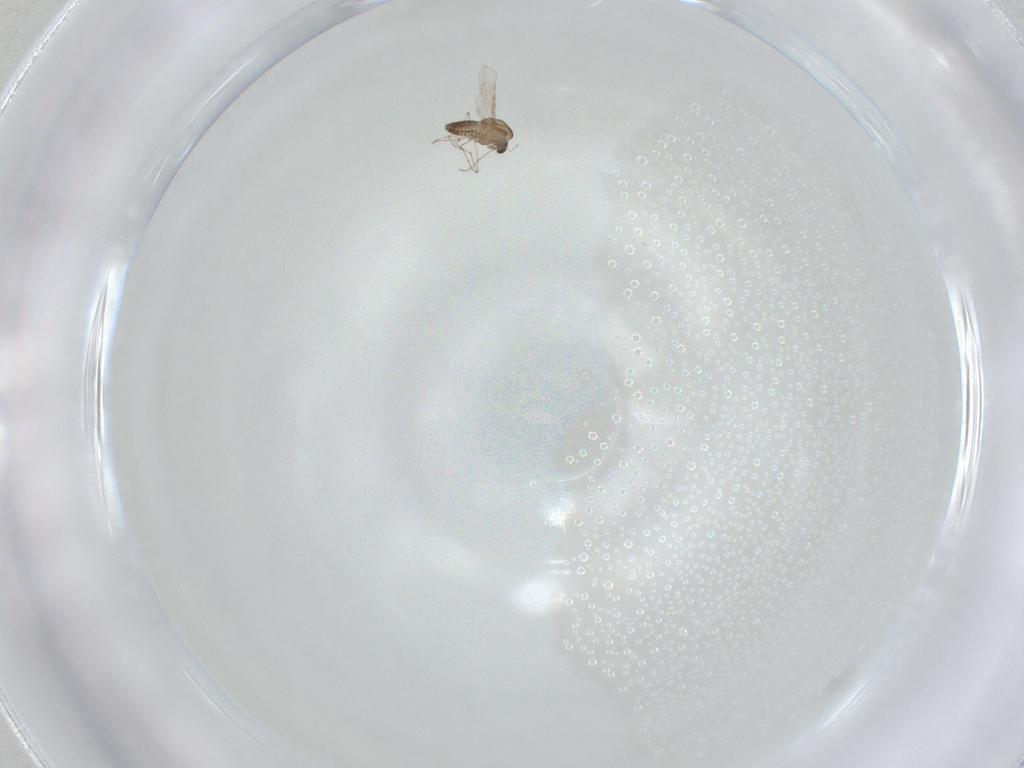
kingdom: Animalia
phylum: Arthropoda
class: Insecta
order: Diptera
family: Chironomidae
